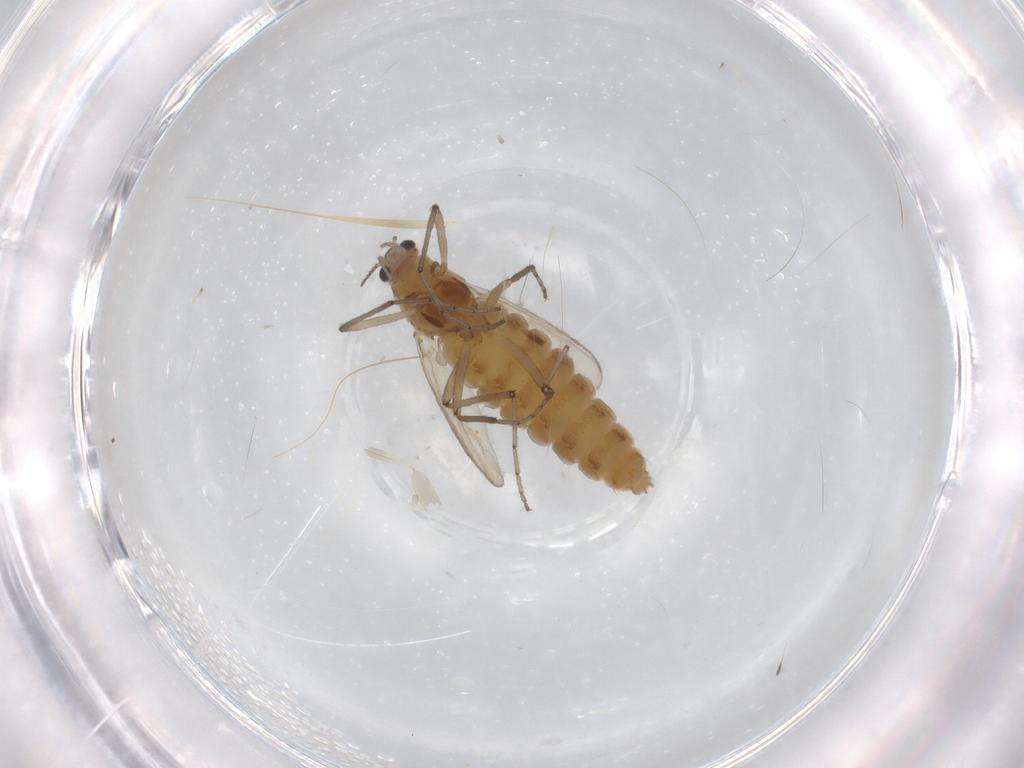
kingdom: Animalia
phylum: Arthropoda
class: Insecta
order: Diptera
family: Chironomidae
